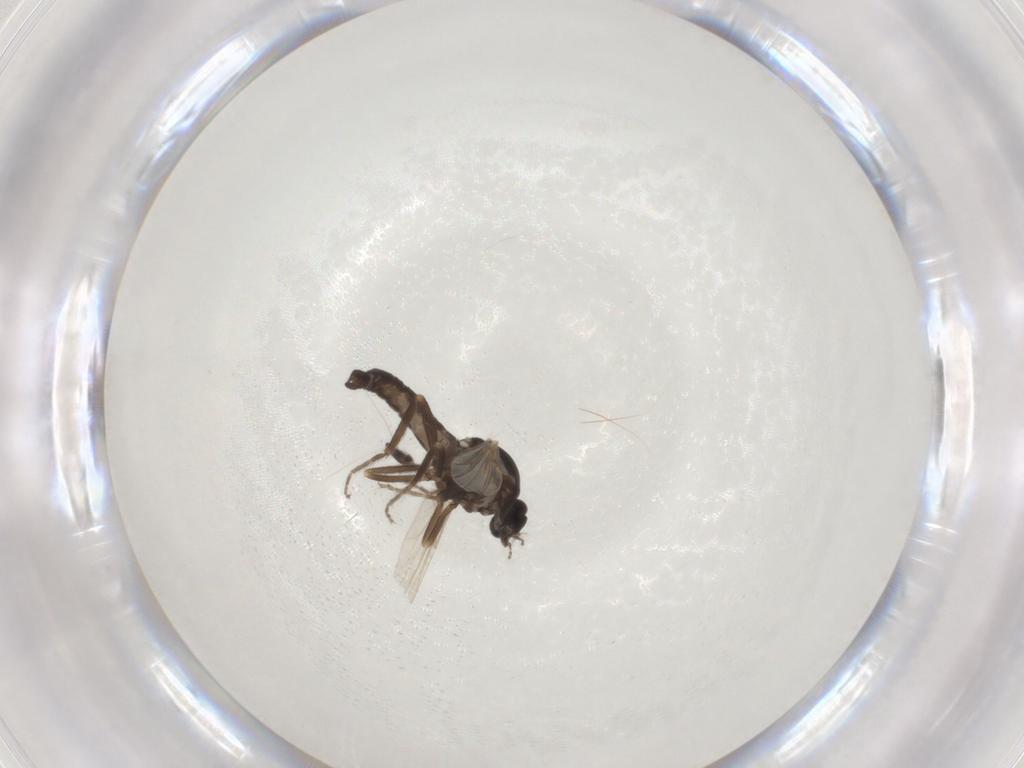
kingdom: Animalia
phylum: Arthropoda
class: Insecta
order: Diptera
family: Ceratopogonidae
